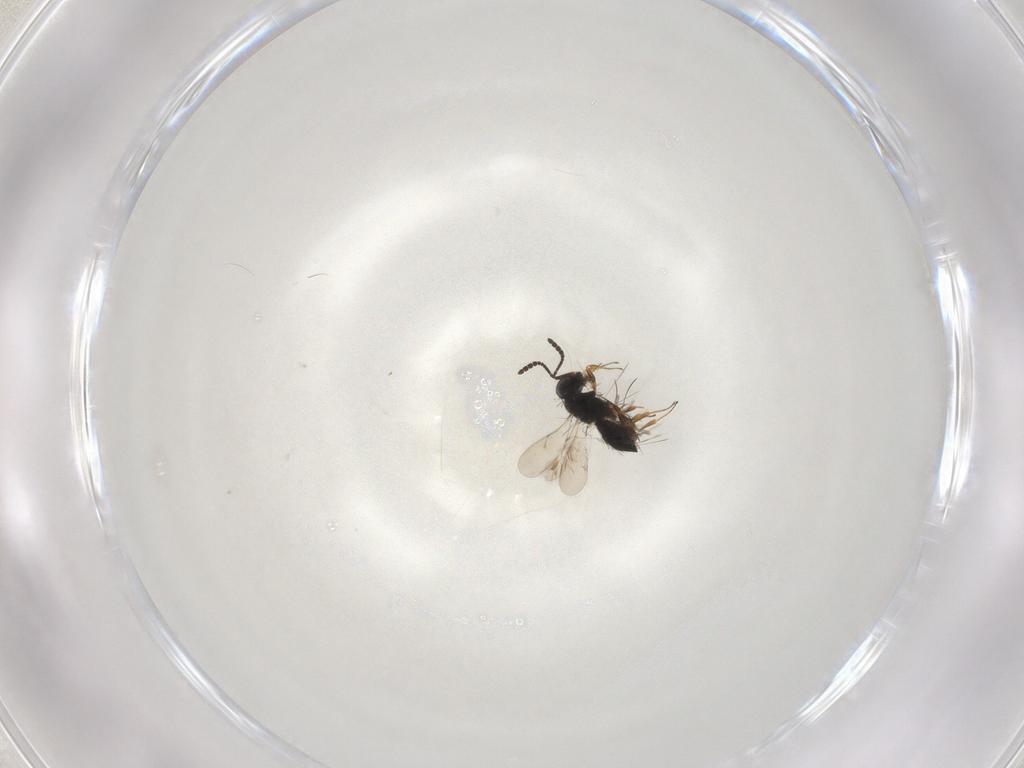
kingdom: Animalia
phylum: Arthropoda
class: Insecta
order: Hymenoptera
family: Scelionidae
